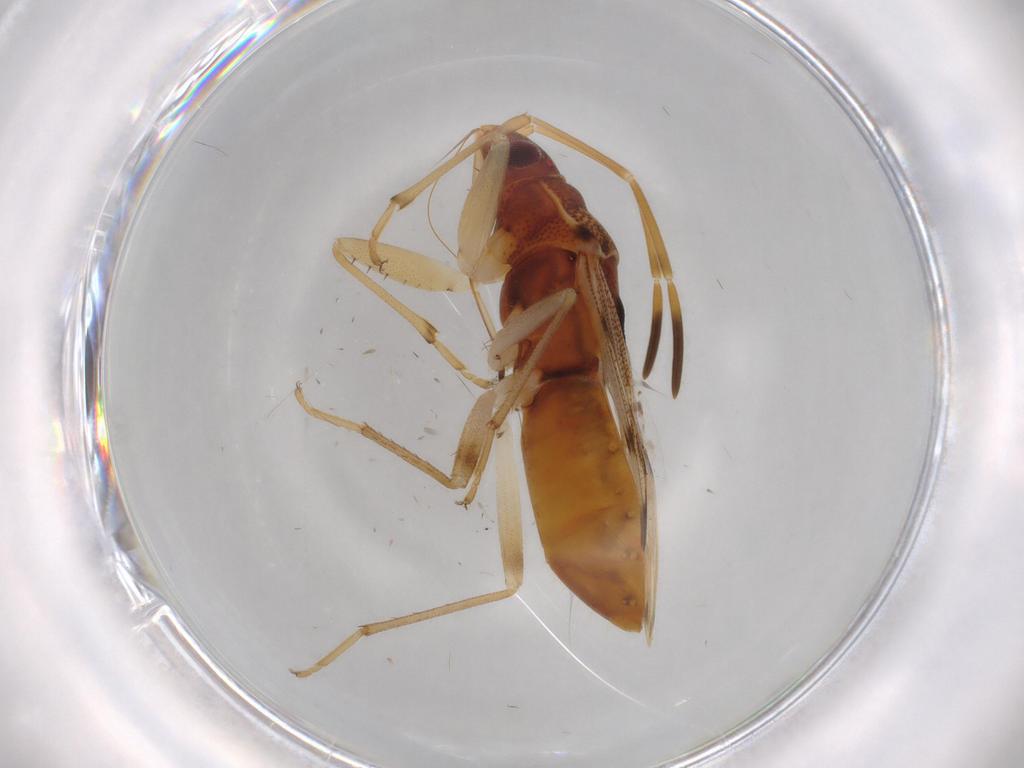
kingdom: Animalia
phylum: Arthropoda
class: Insecta
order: Hemiptera
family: Rhyparochromidae
